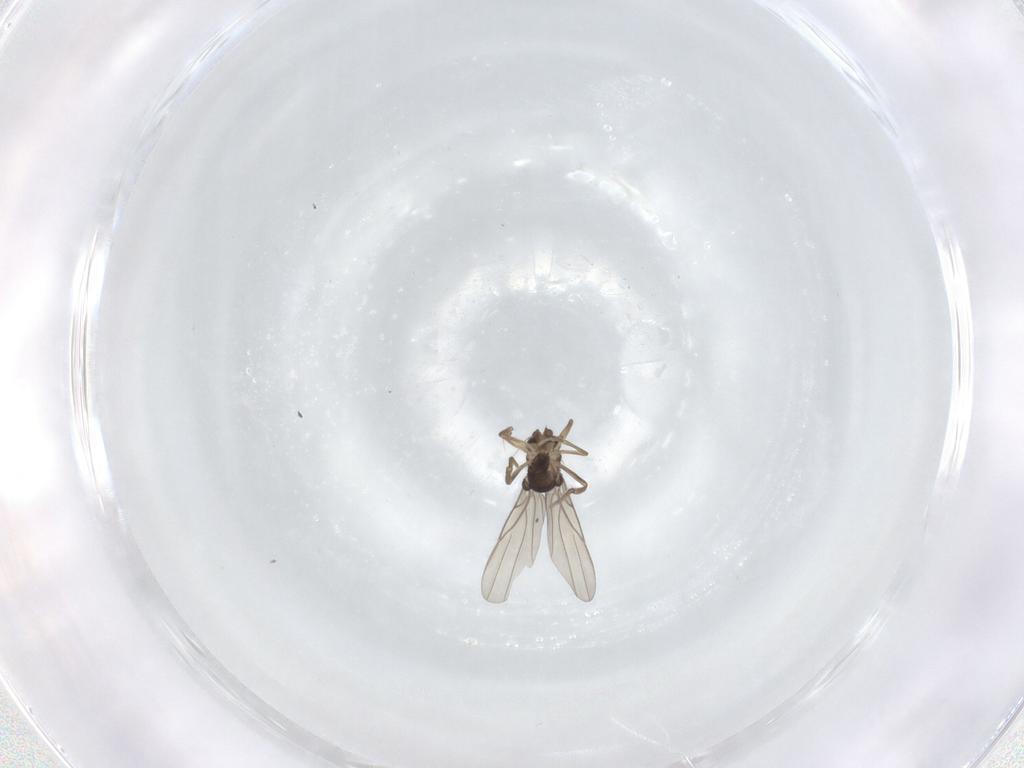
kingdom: Animalia
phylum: Arthropoda
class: Insecta
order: Diptera
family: Phoridae
